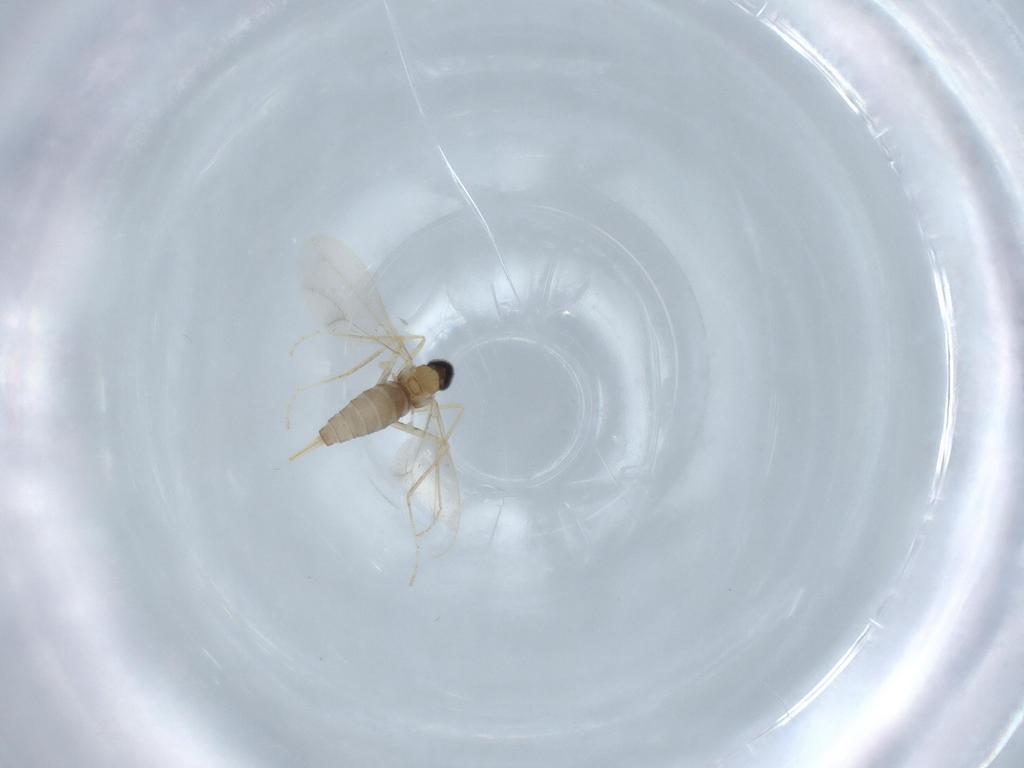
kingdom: Animalia
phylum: Arthropoda
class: Insecta
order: Diptera
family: Cecidomyiidae
